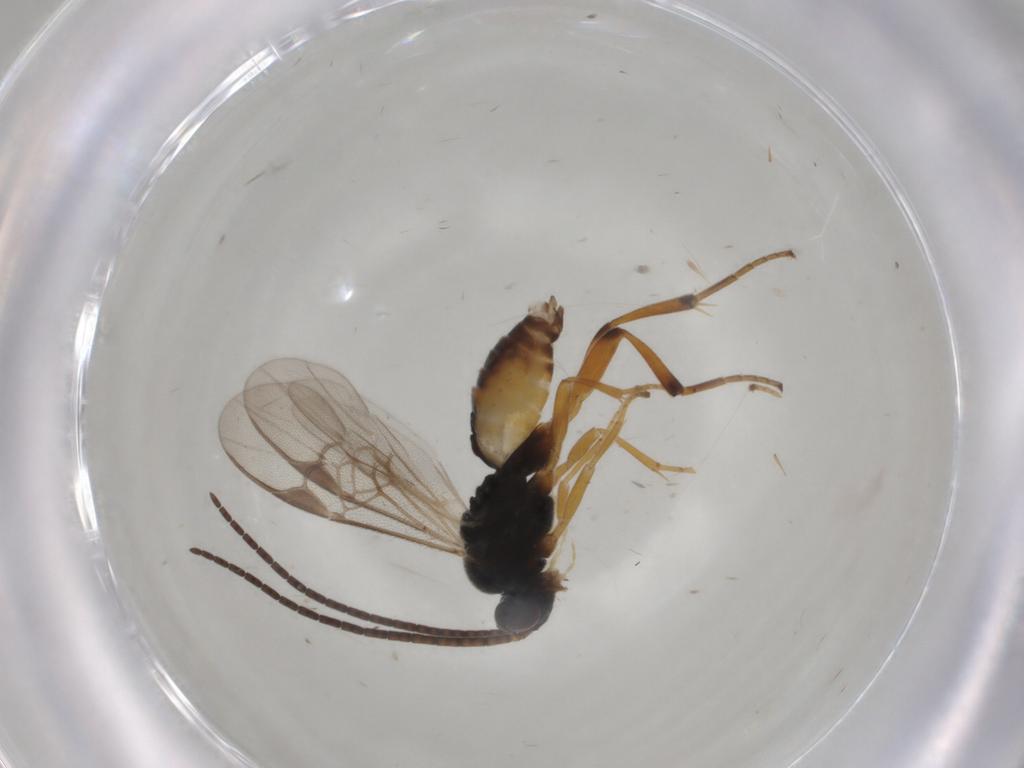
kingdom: Animalia
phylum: Arthropoda
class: Insecta
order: Hymenoptera
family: Braconidae
